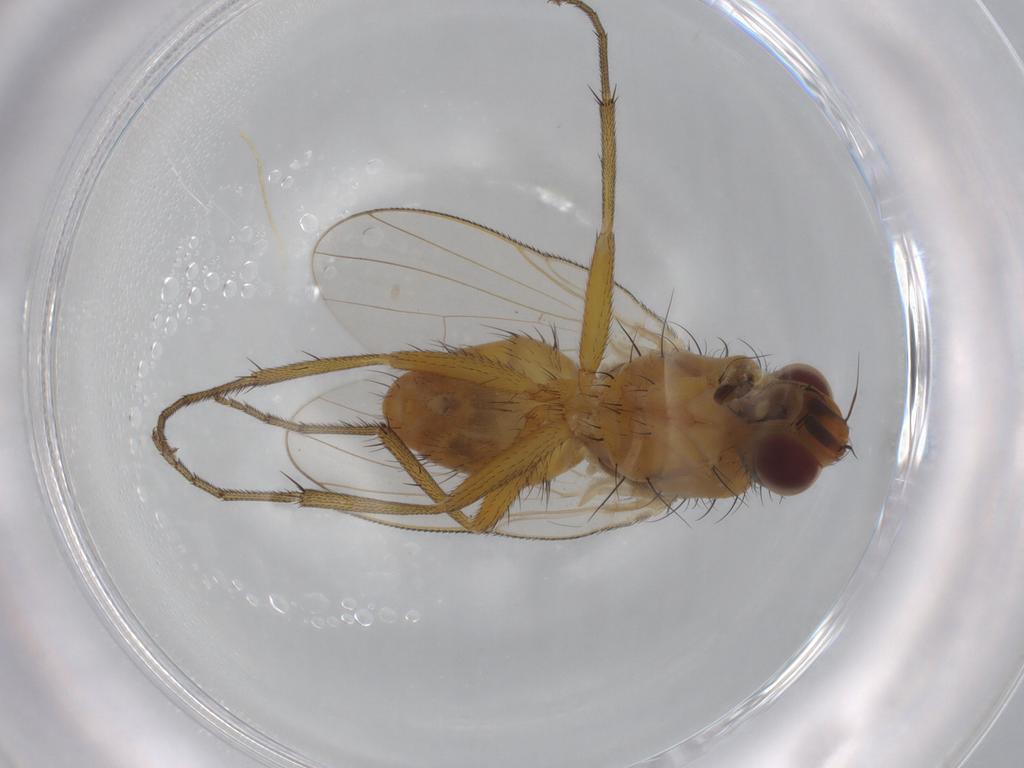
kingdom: Animalia
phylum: Arthropoda
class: Insecta
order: Diptera
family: Muscidae
